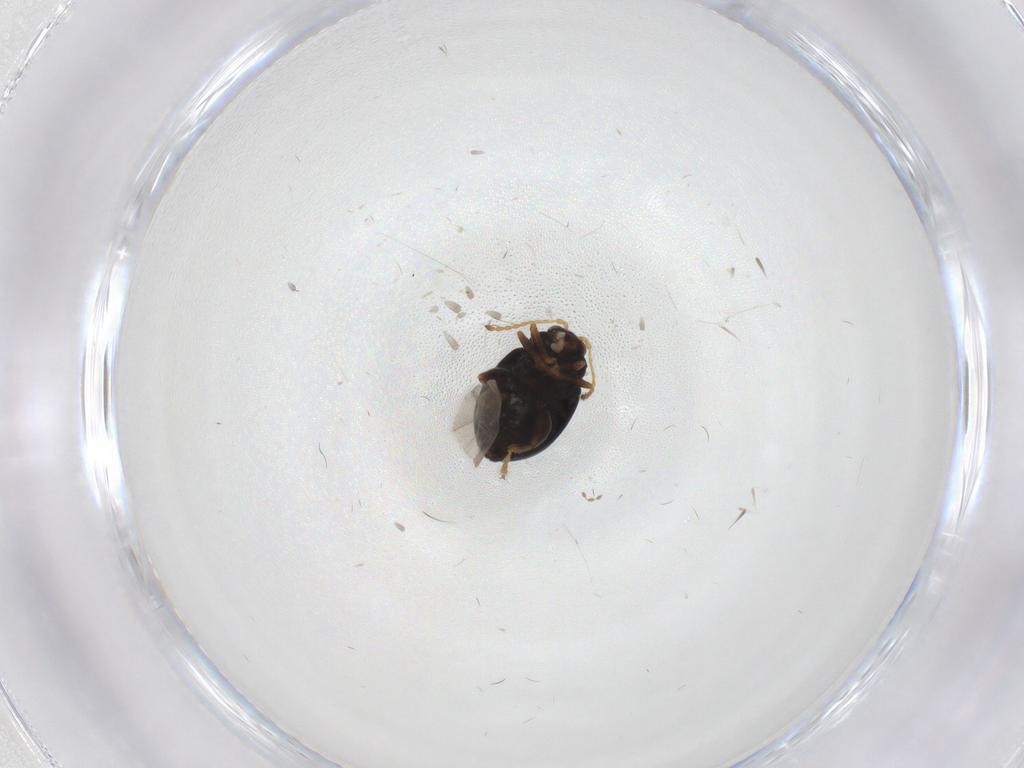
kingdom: Animalia
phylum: Arthropoda
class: Insecta
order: Coleoptera
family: Chrysomelidae
